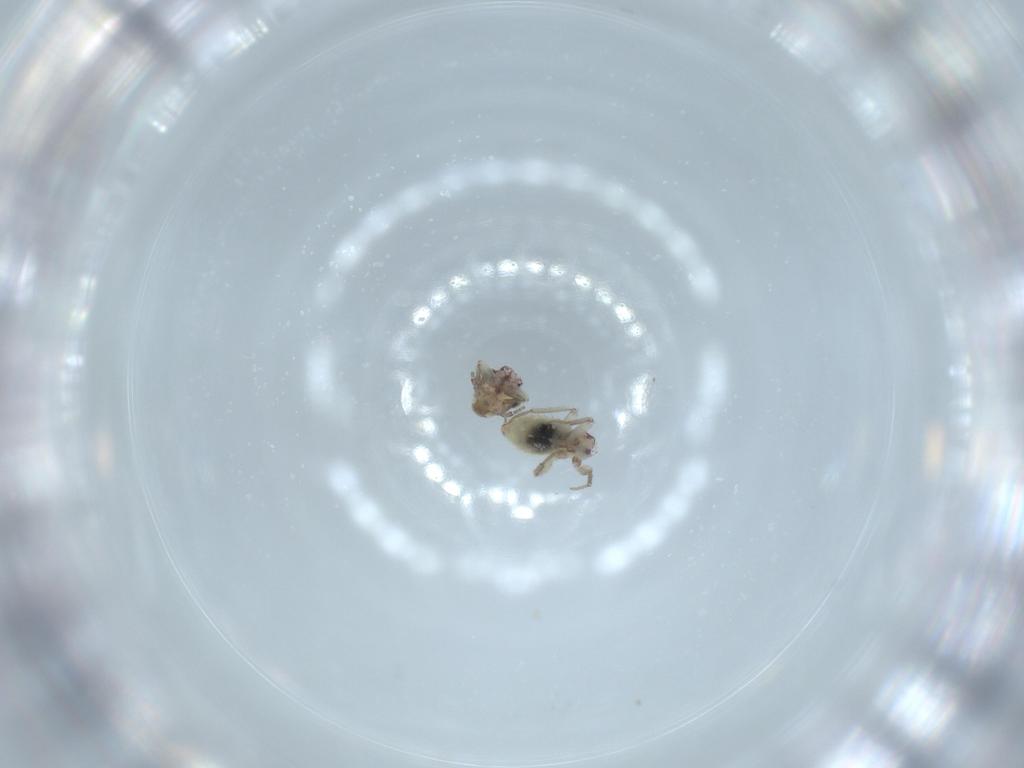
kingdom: Animalia
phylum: Arthropoda
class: Insecta
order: Psocodea
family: Lepidopsocidae
